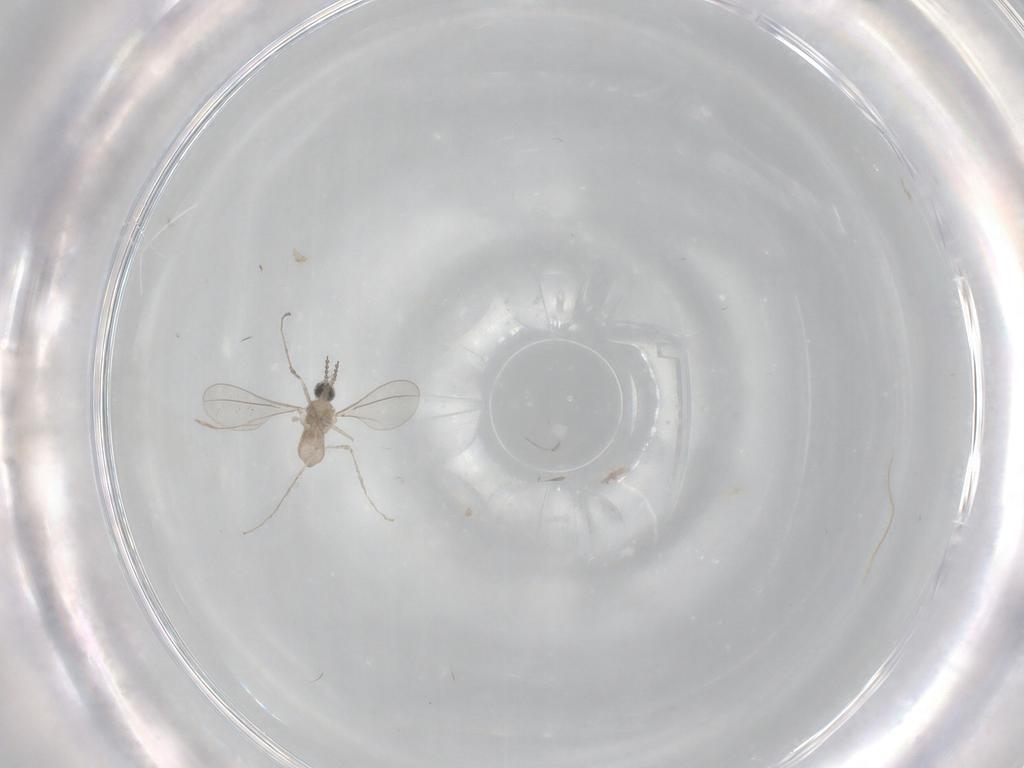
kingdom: Animalia
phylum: Arthropoda
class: Insecta
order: Diptera
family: Cecidomyiidae
